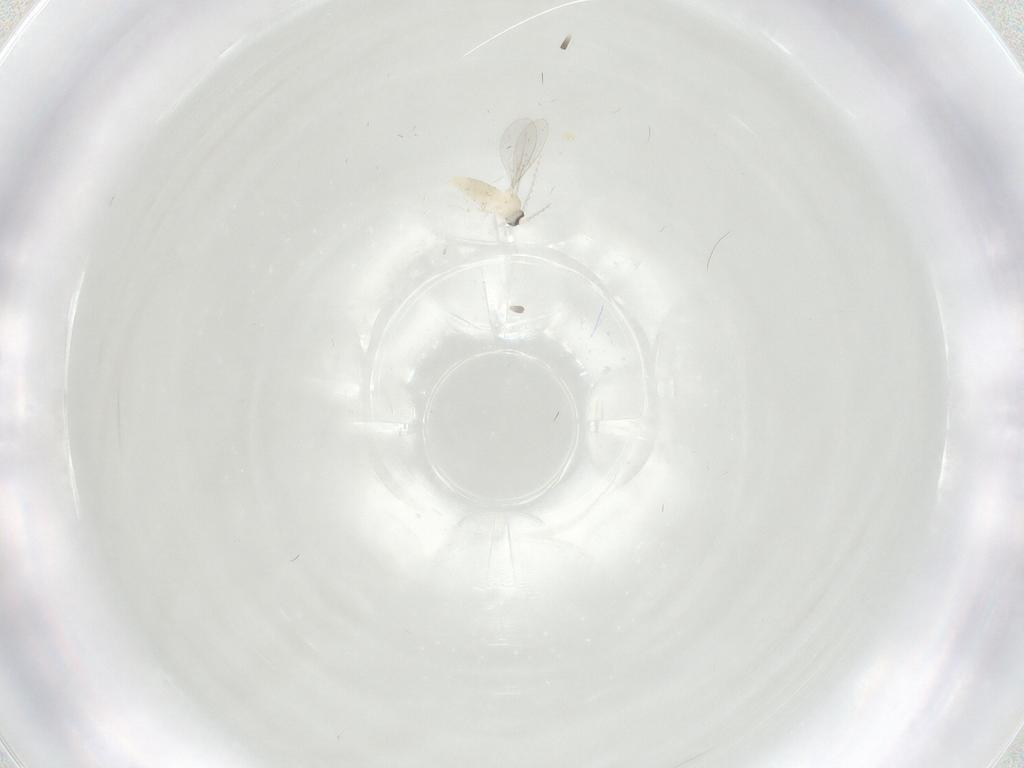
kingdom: Animalia
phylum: Arthropoda
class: Insecta
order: Diptera
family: Cecidomyiidae
